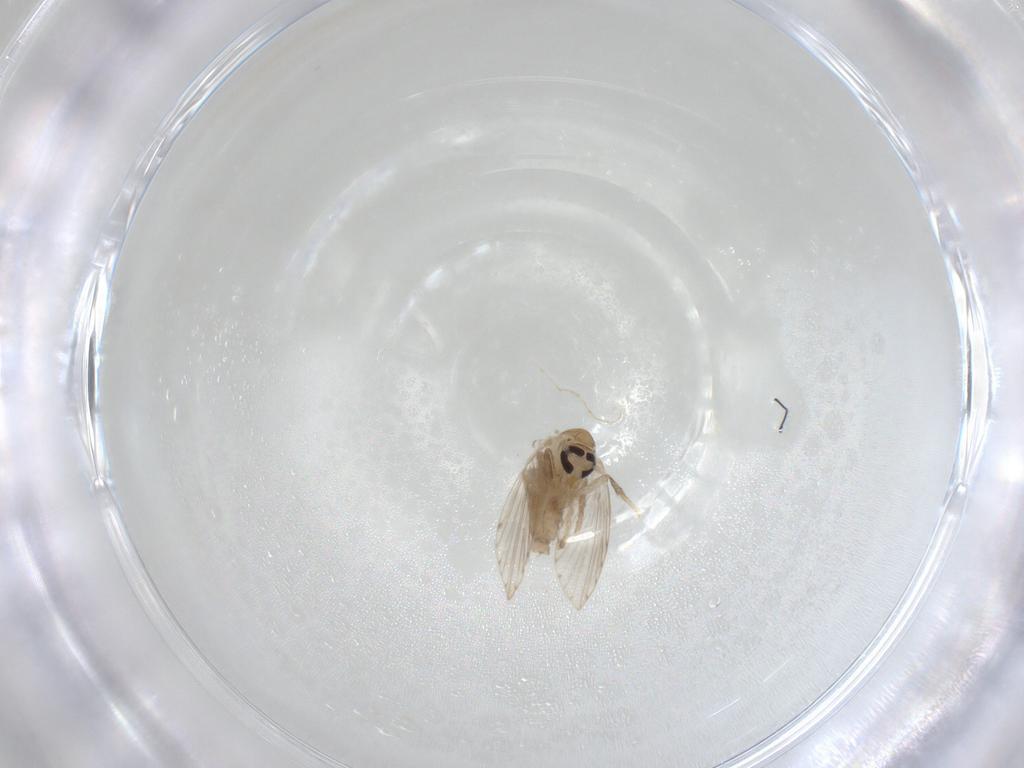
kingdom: Animalia
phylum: Arthropoda
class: Insecta
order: Diptera
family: Psychodidae
